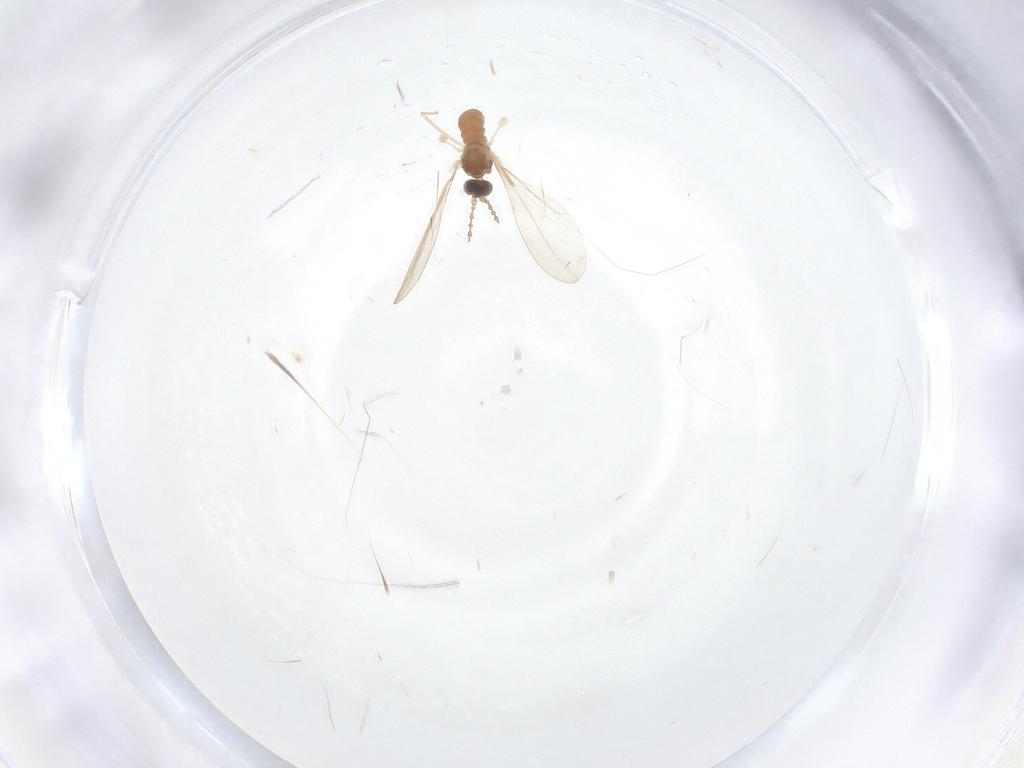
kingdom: Animalia
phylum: Arthropoda
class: Insecta
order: Diptera
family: Cecidomyiidae
